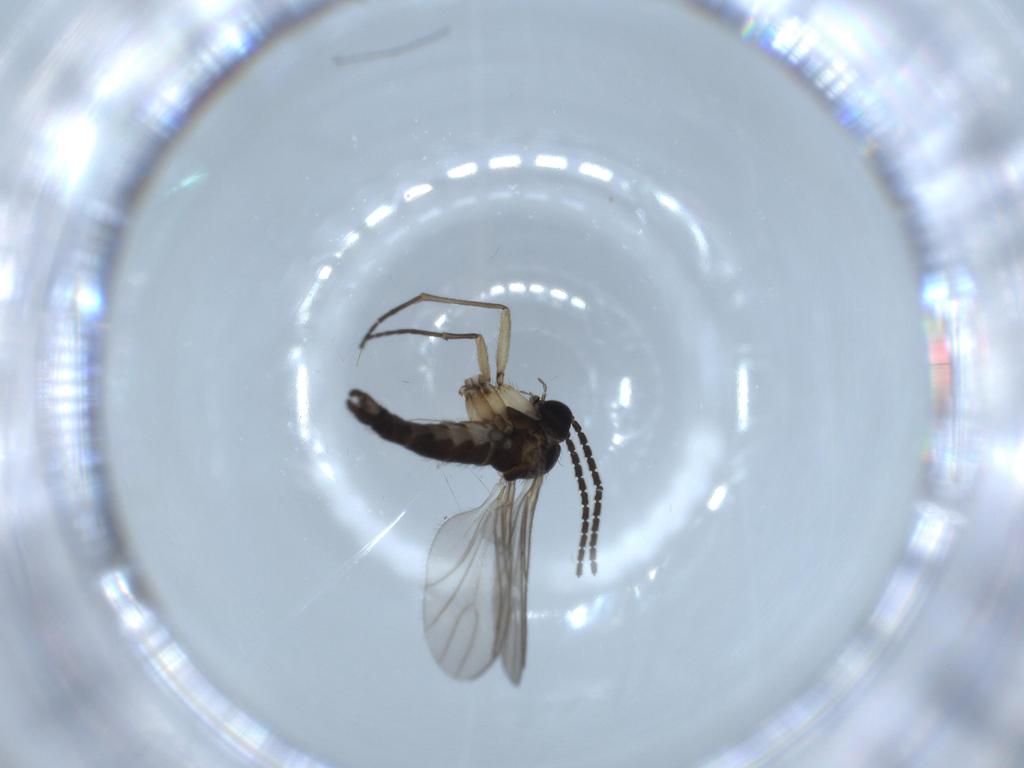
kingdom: Animalia
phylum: Arthropoda
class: Insecta
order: Diptera
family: Sciaridae
